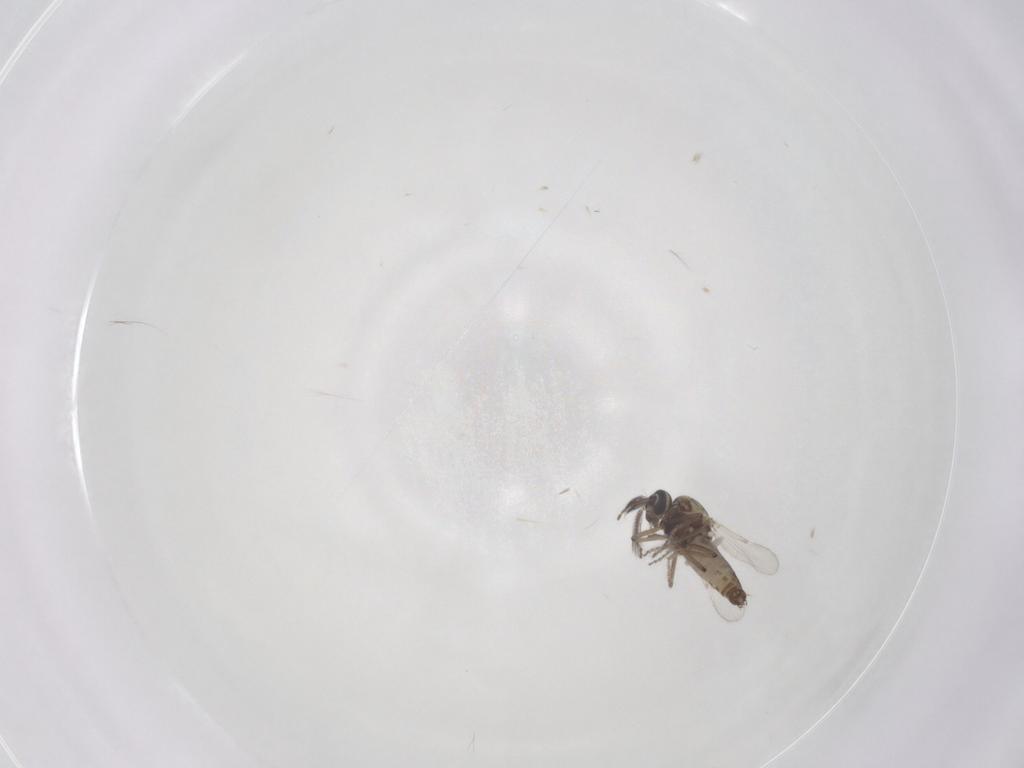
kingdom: Animalia
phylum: Arthropoda
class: Insecta
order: Diptera
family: Ceratopogonidae
